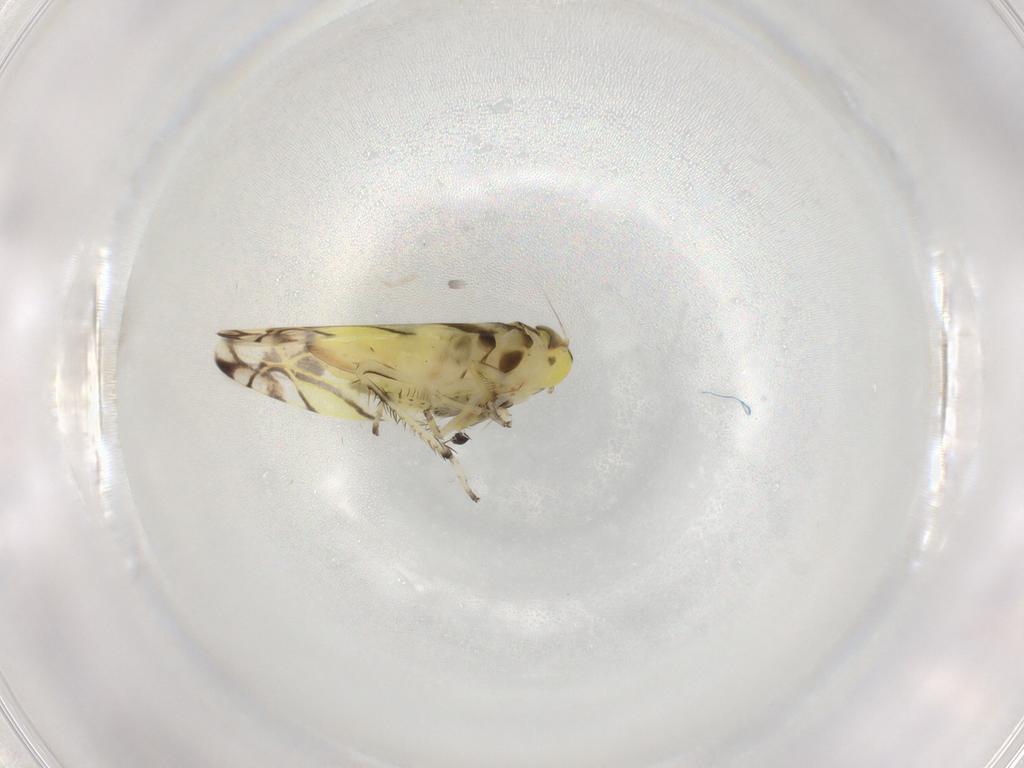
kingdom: Animalia
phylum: Arthropoda
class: Insecta
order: Hemiptera
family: Cicadellidae
